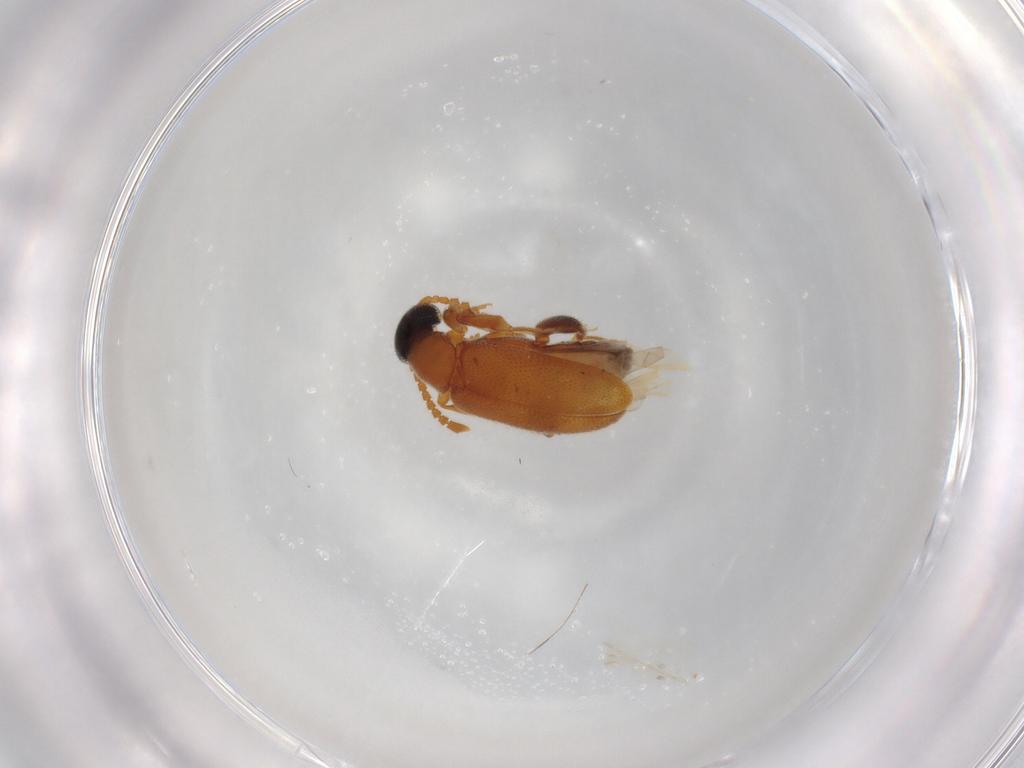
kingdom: Animalia
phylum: Arthropoda
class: Insecta
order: Coleoptera
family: Aderidae
